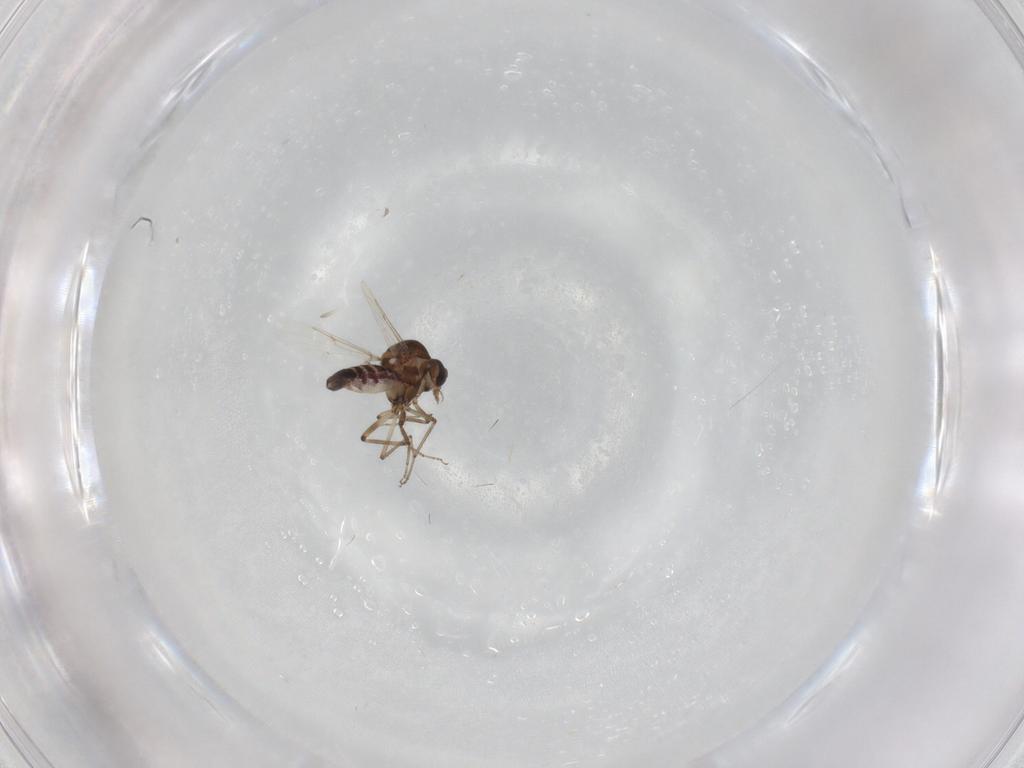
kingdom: Animalia
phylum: Arthropoda
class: Insecta
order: Diptera
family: Ceratopogonidae
